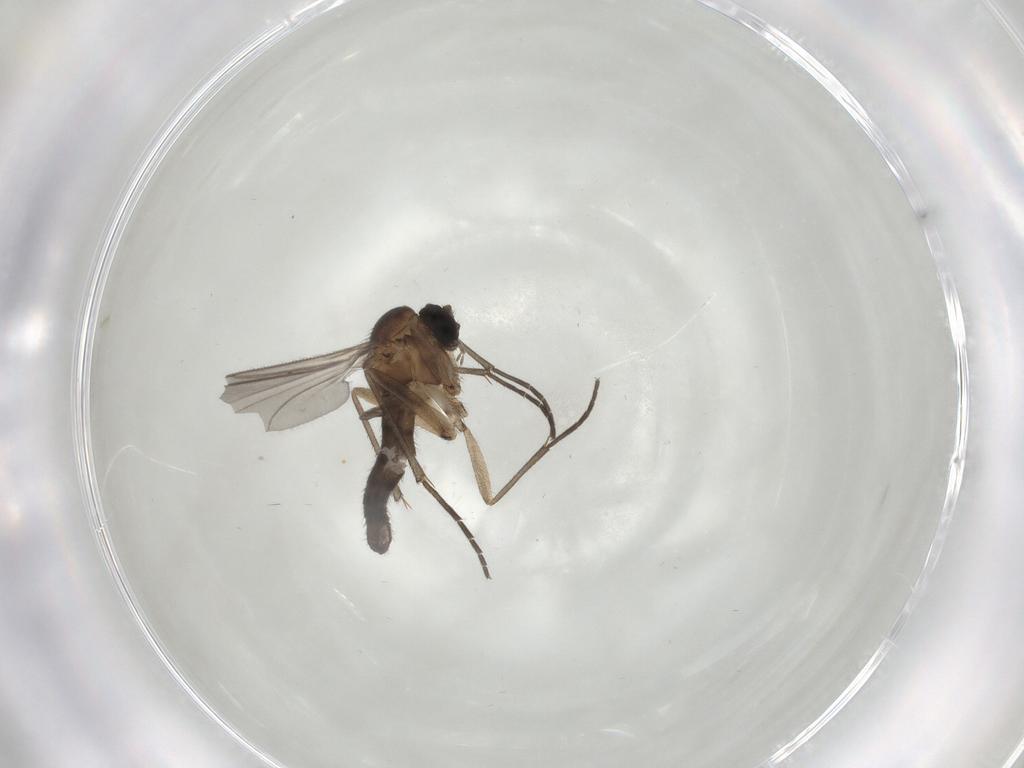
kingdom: Animalia
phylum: Arthropoda
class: Insecta
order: Diptera
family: Sciaridae
